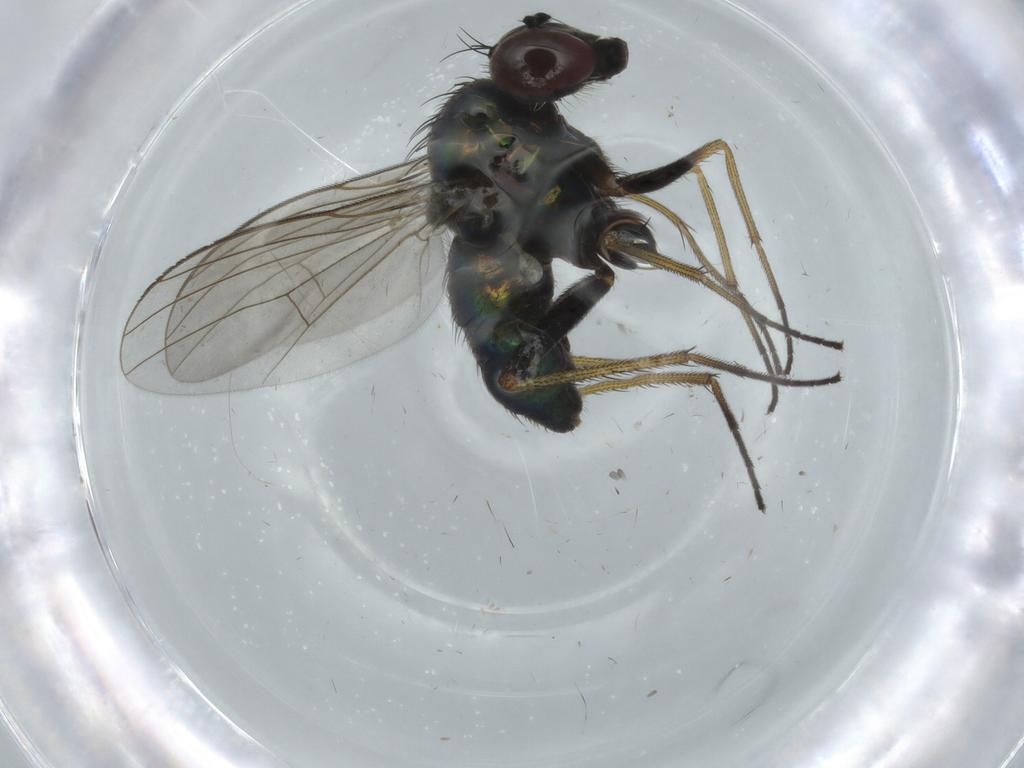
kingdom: Animalia
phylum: Arthropoda
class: Insecta
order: Diptera
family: Dolichopodidae
